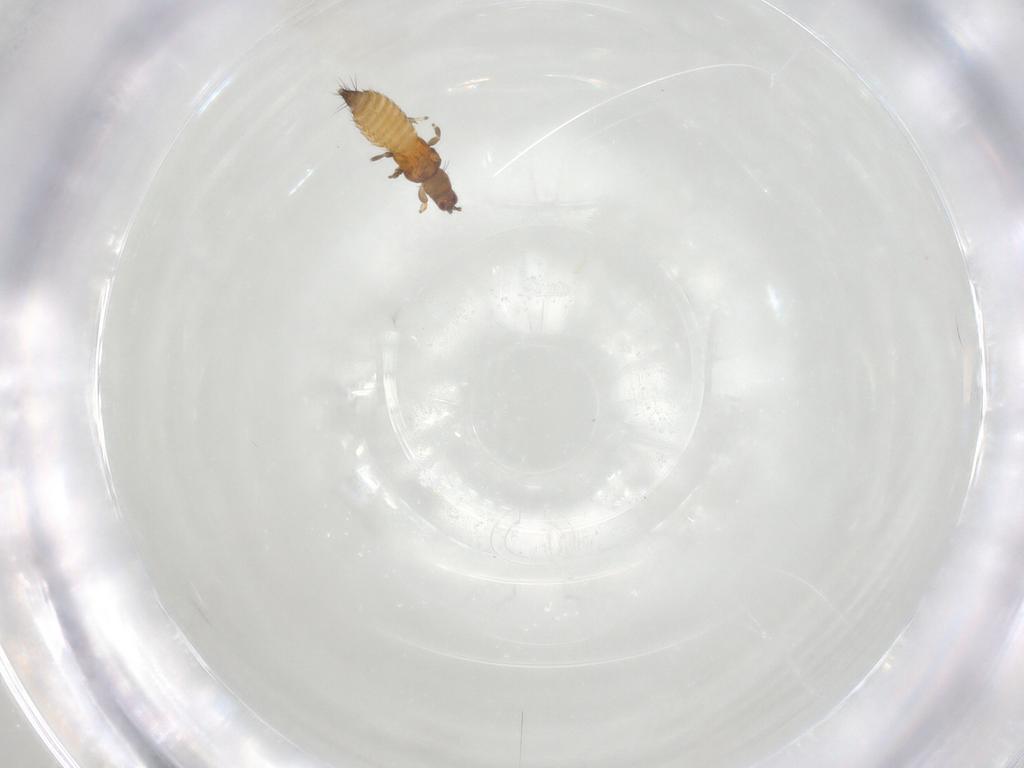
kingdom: Animalia
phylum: Arthropoda
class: Insecta
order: Thysanoptera
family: Thripidae
